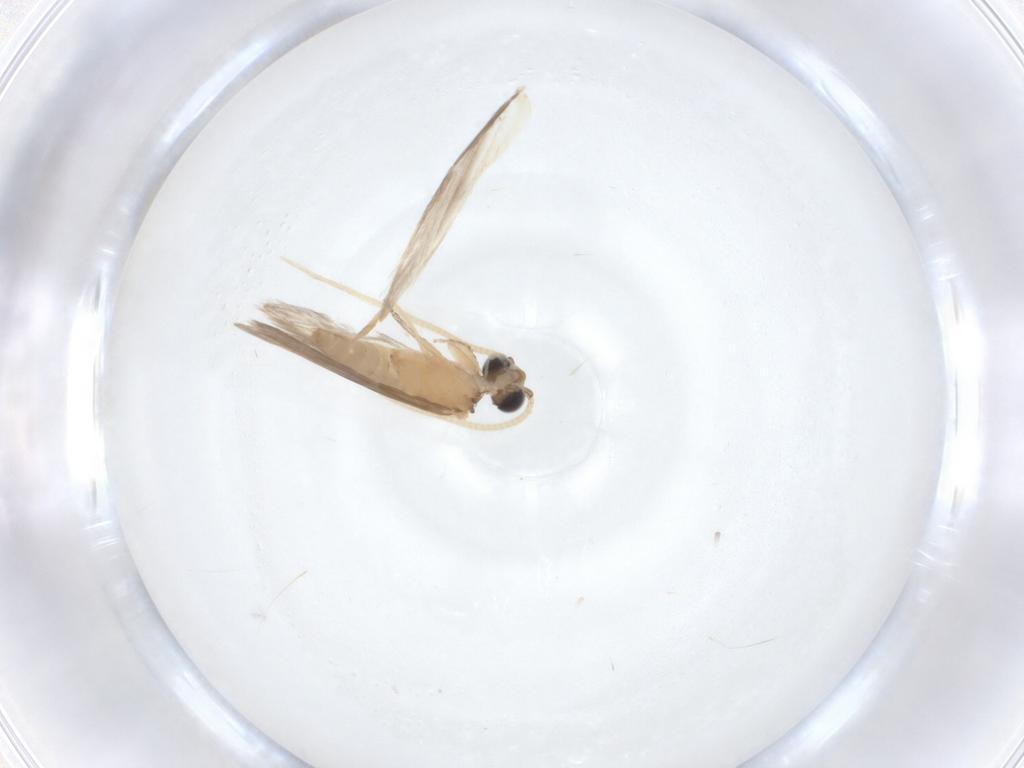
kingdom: Animalia
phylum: Arthropoda
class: Insecta
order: Trichoptera
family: Hydroptilidae
